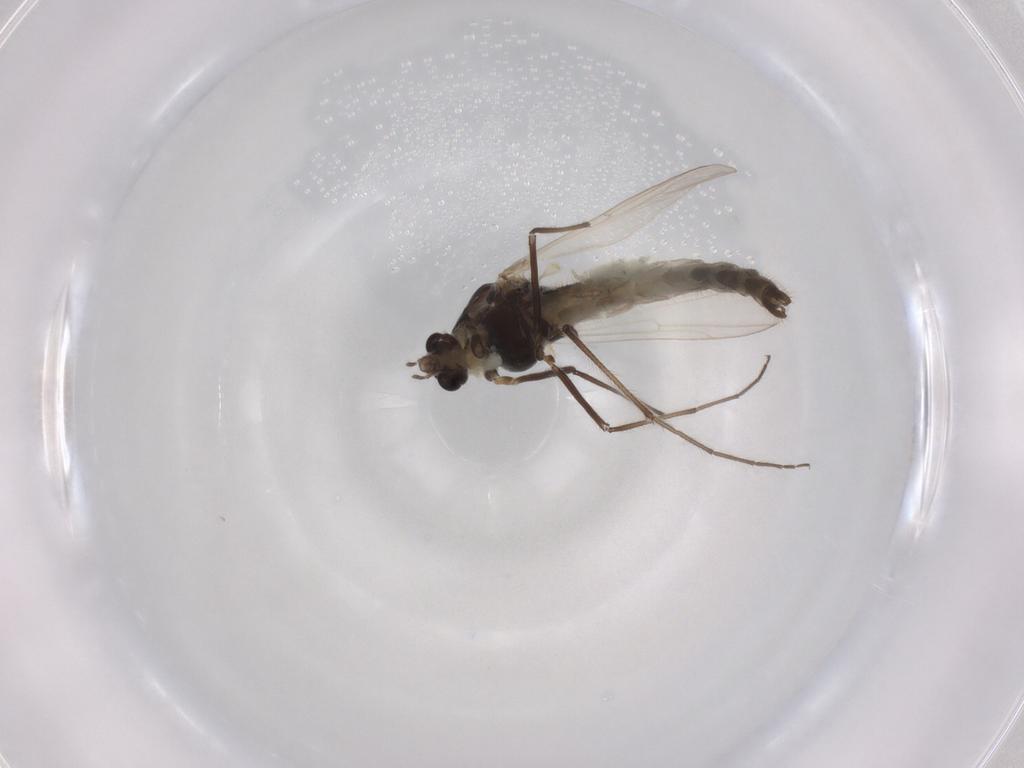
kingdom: Animalia
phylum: Arthropoda
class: Insecta
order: Diptera
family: Chironomidae
